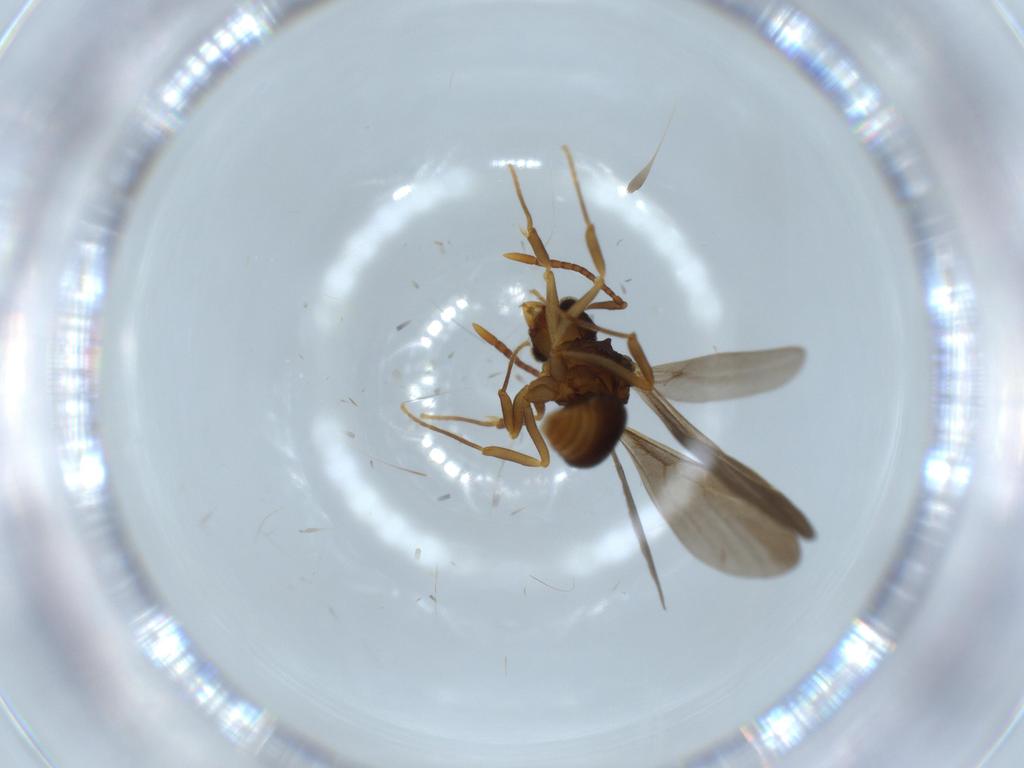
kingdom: Animalia
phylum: Arthropoda
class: Insecta
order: Hymenoptera
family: Formicidae
